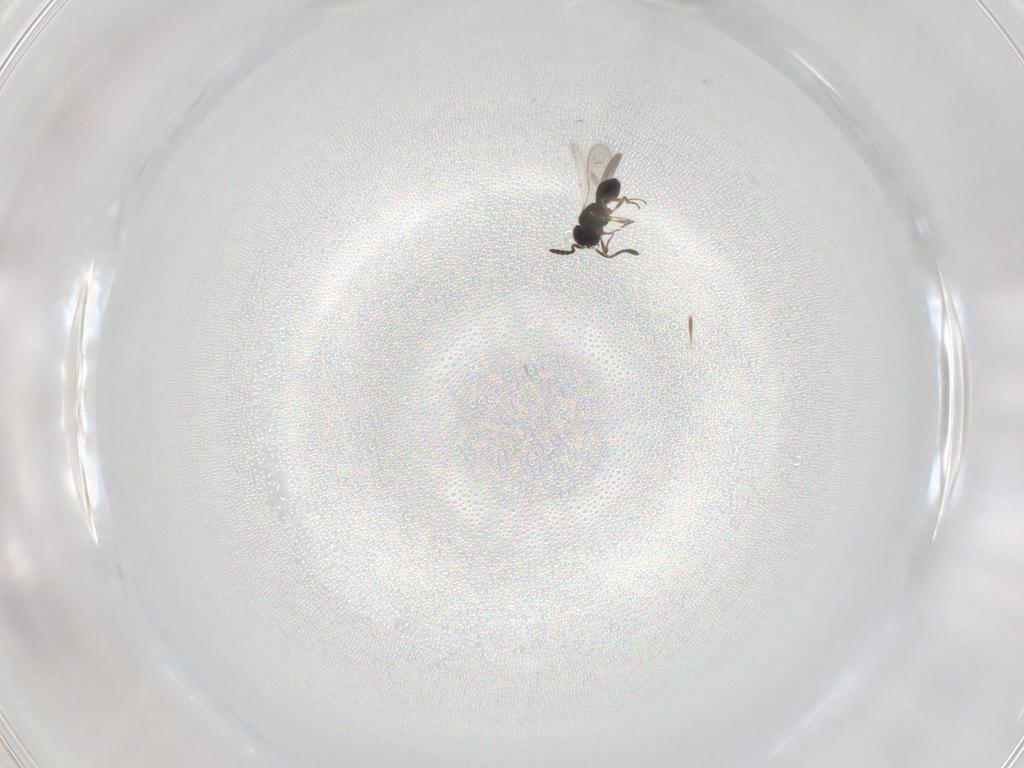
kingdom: Animalia
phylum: Arthropoda
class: Insecta
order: Hymenoptera
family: Scelionidae
